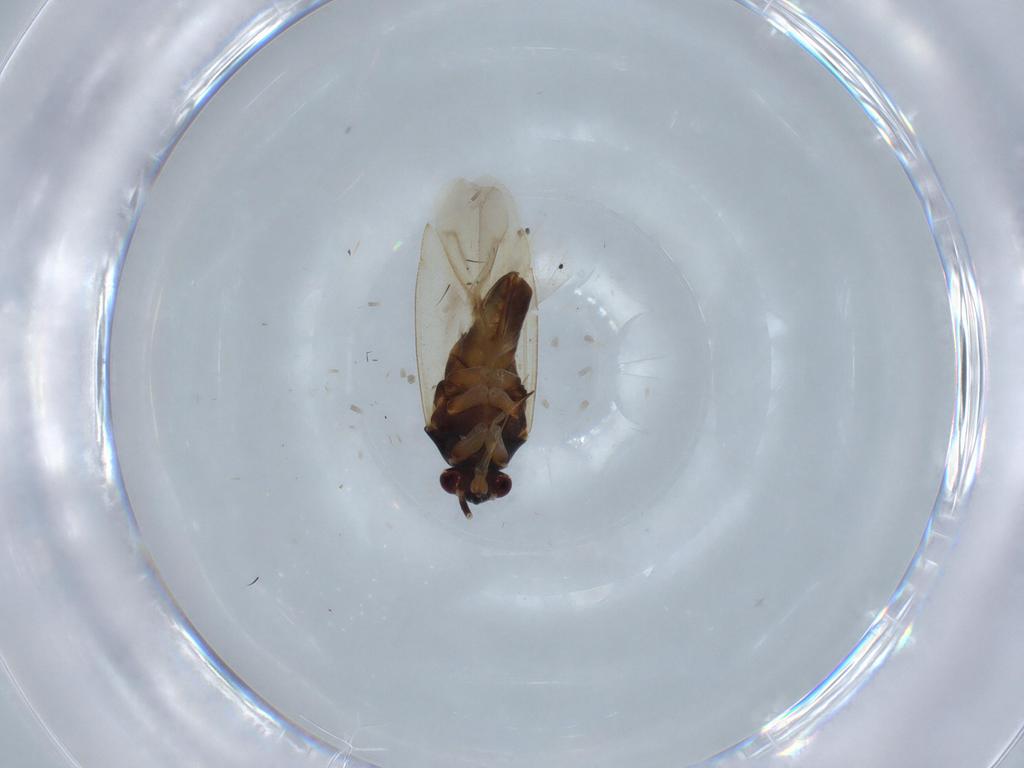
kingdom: Animalia
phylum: Arthropoda
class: Insecta
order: Hemiptera
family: Miridae
